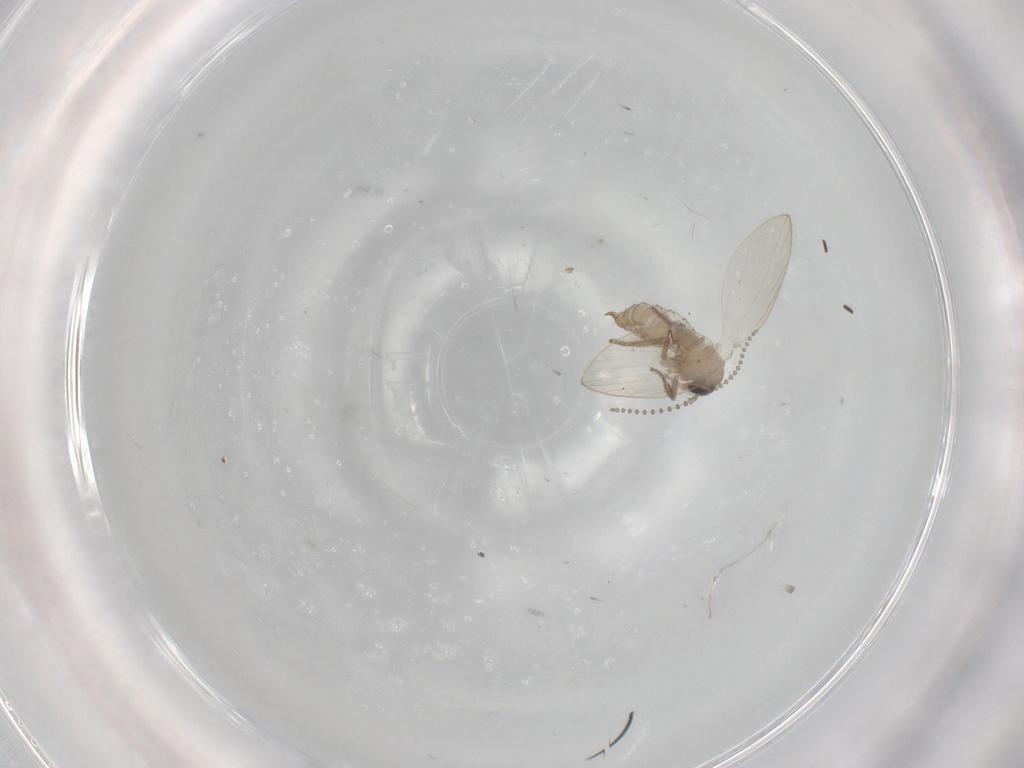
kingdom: Animalia
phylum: Arthropoda
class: Insecta
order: Diptera
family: Psychodidae
